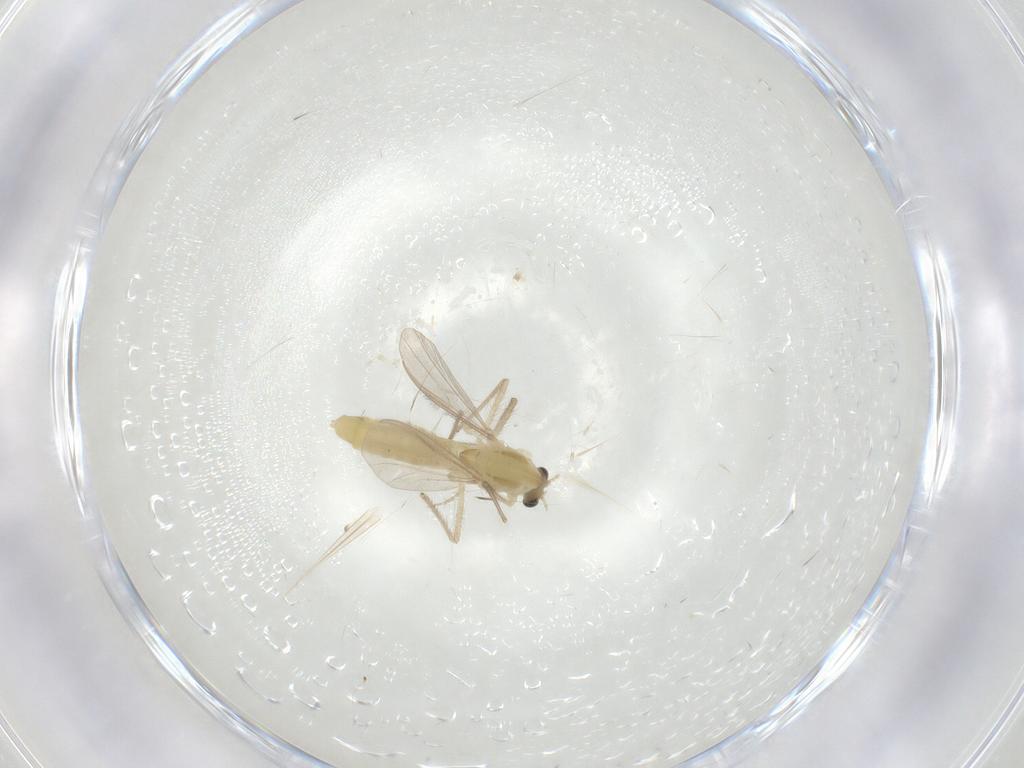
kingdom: Animalia
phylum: Arthropoda
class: Insecta
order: Diptera
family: Chironomidae
